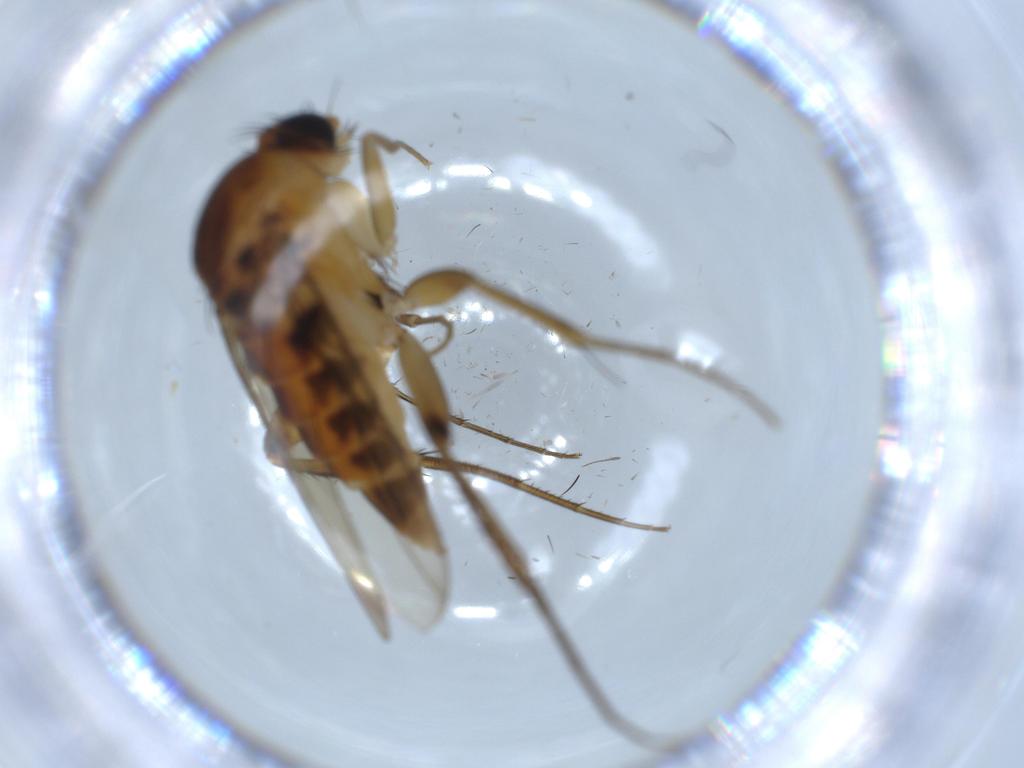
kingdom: Animalia
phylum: Arthropoda
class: Insecta
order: Diptera
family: Phoridae
